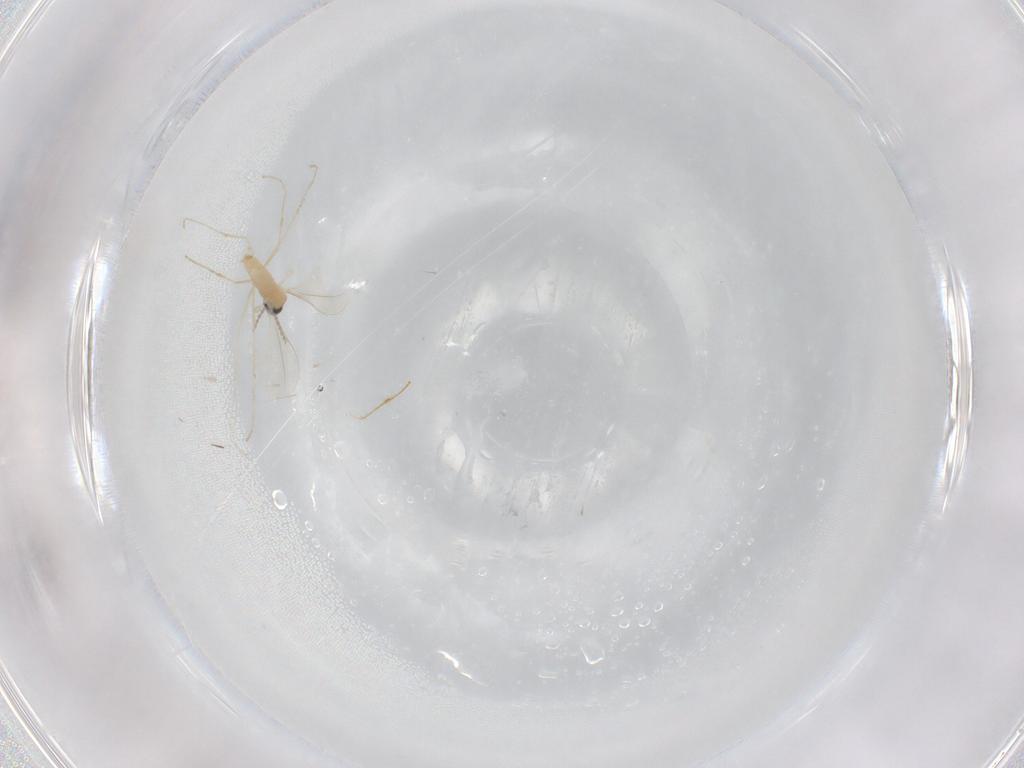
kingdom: Animalia
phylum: Arthropoda
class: Insecta
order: Diptera
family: Cecidomyiidae
